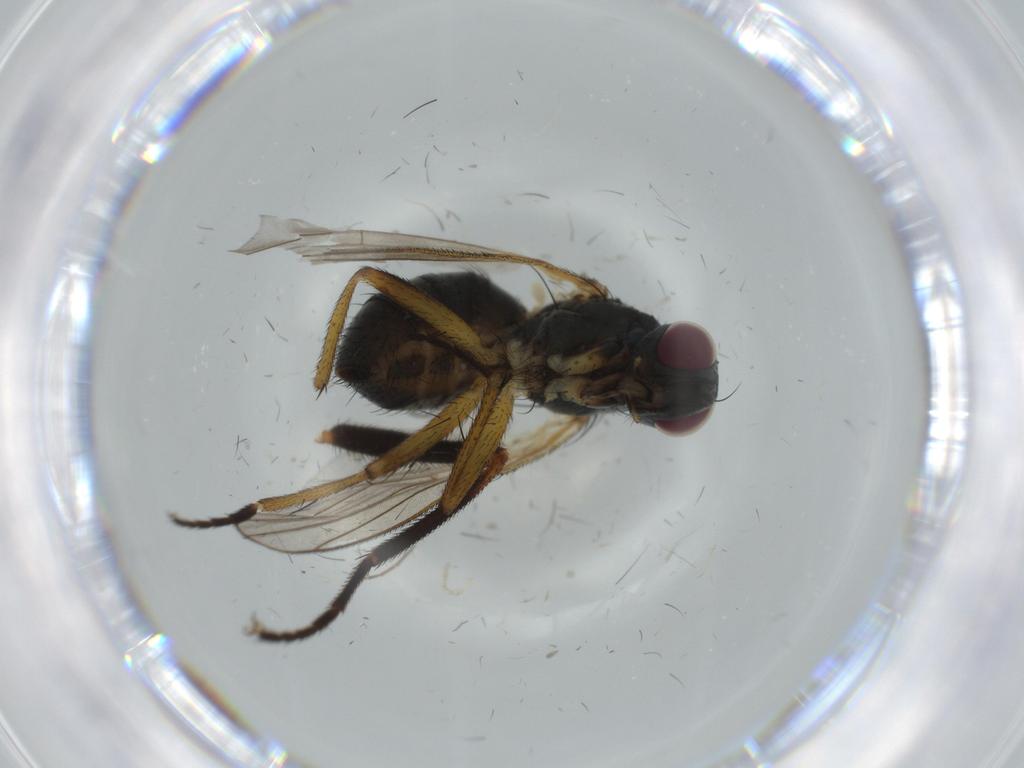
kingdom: Animalia
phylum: Arthropoda
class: Insecta
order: Diptera
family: Muscidae
